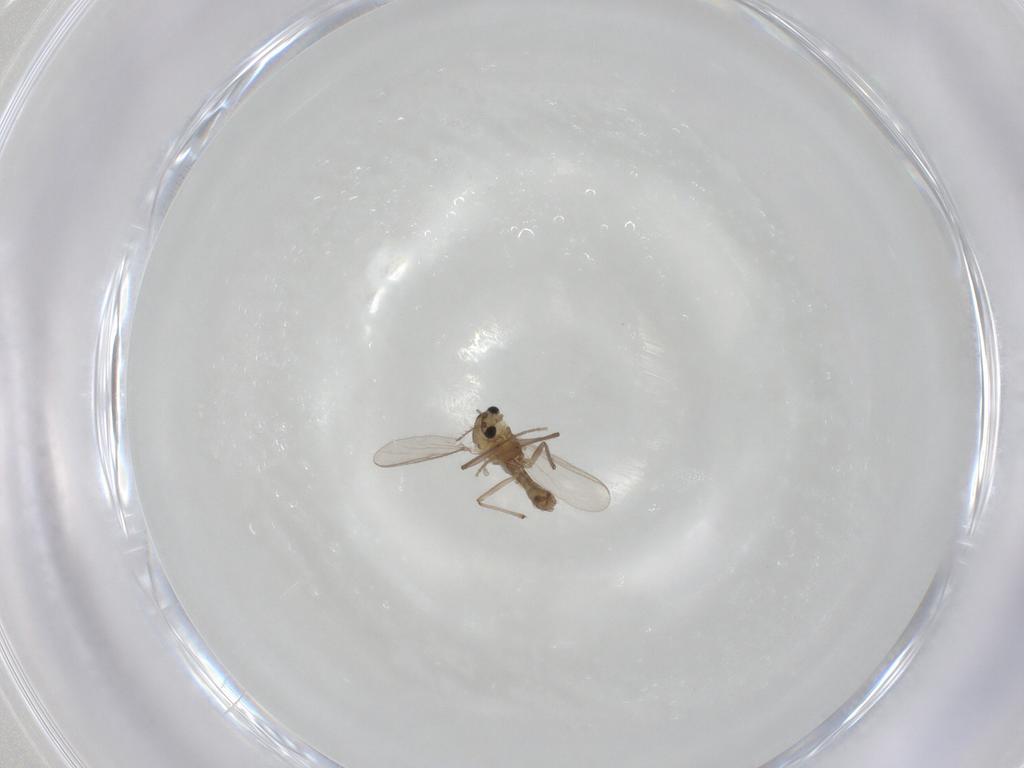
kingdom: Animalia
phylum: Arthropoda
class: Insecta
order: Diptera
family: Chironomidae
